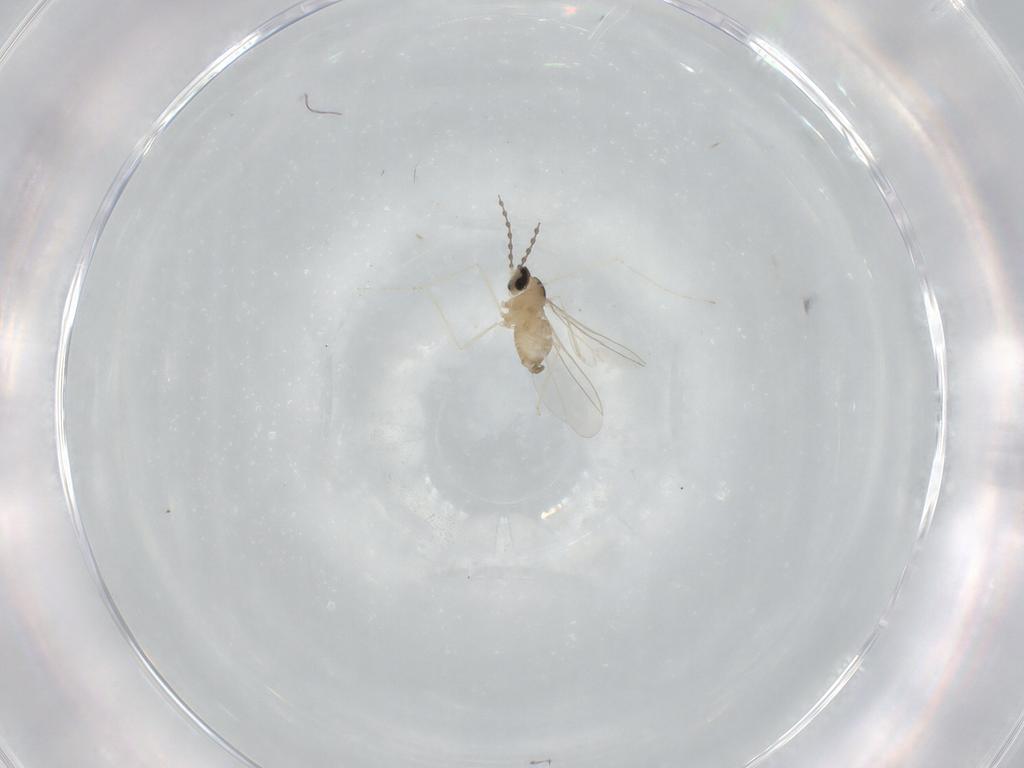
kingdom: Animalia
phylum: Arthropoda
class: Insecta
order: Diptera
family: Cecidomyiidae
